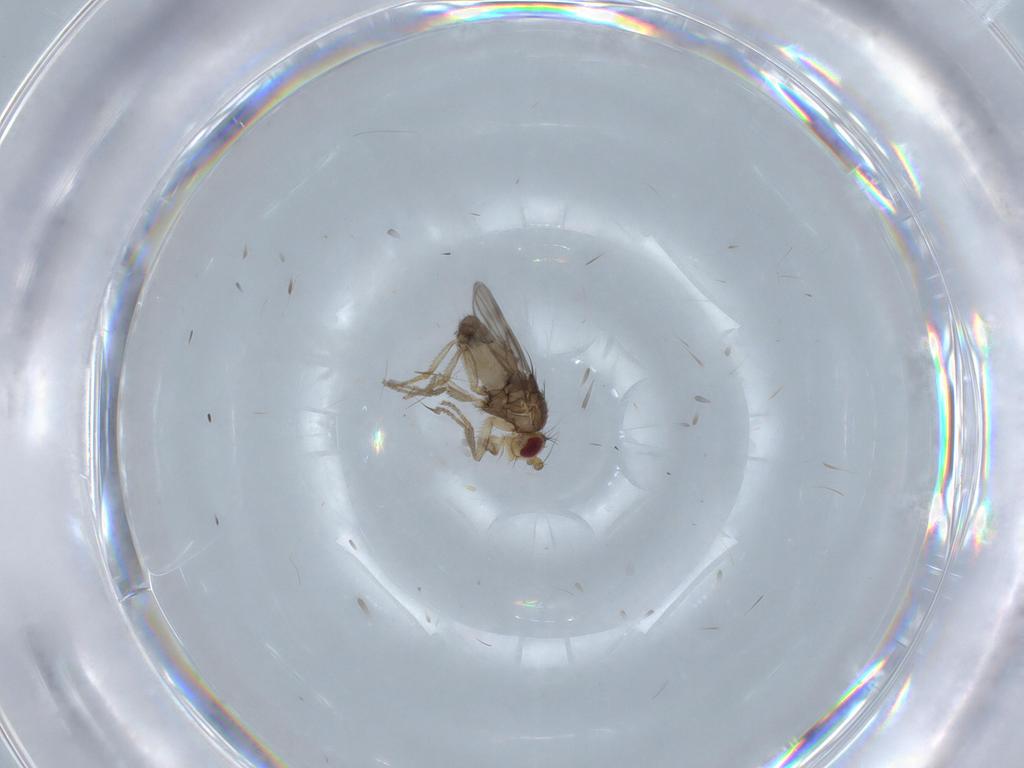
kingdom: Animalia
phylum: Arthropoda
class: Insecta
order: Diptera
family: Sphaeroceridae
